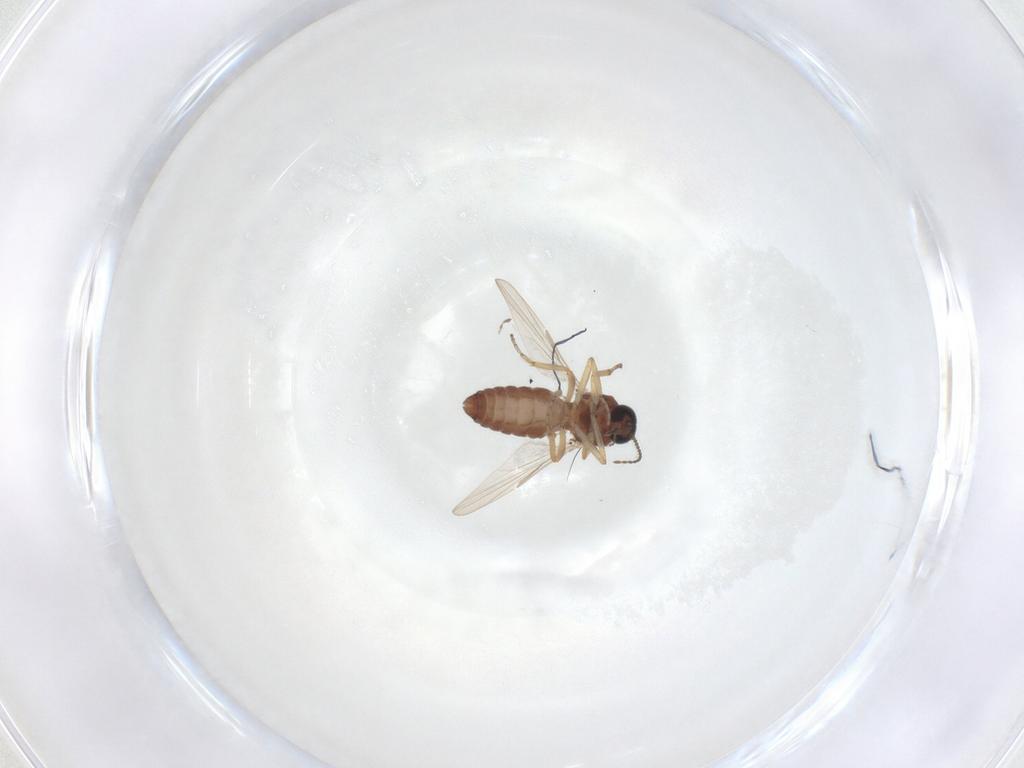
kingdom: Animalia
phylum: Arthropoda
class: Insecta
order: Diptera
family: Ceratopogonidae
